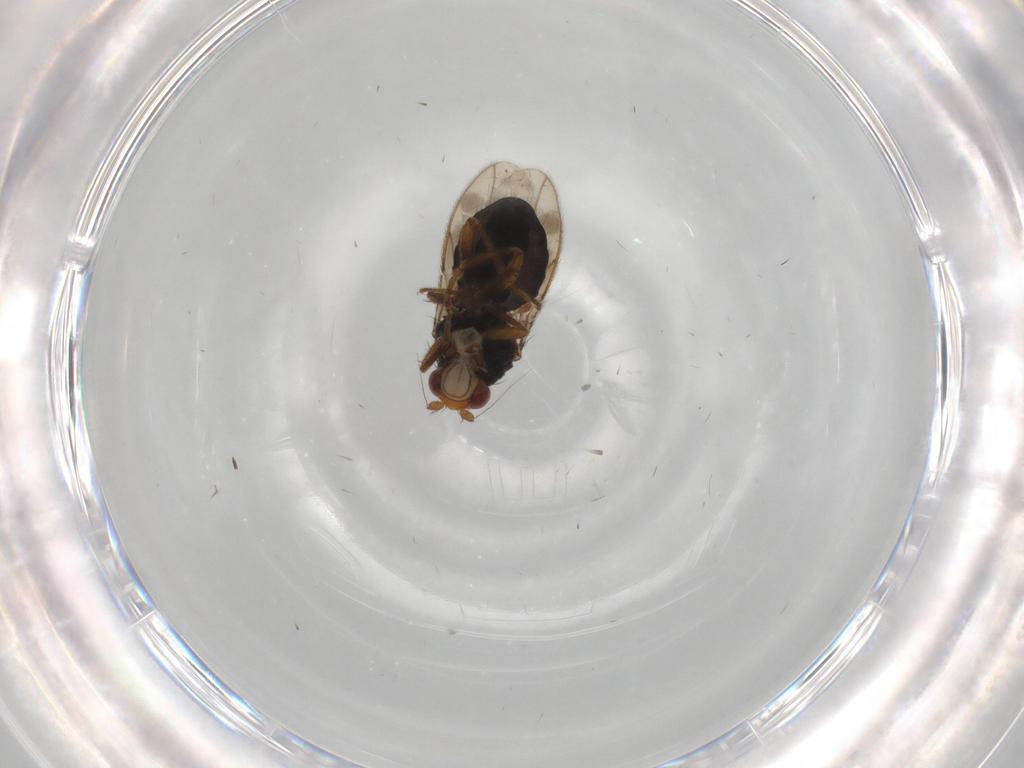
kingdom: Animalia
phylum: Arthropoda
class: Insecta
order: Diptera
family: Sphaeroceridae
